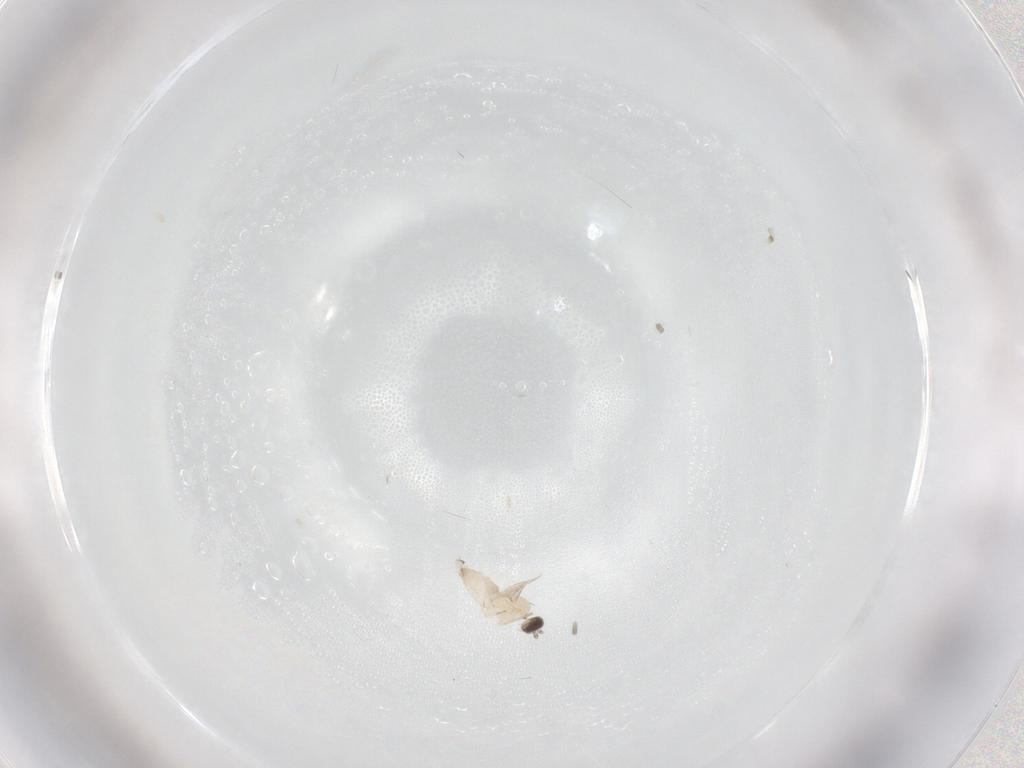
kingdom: Animalia
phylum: Arthropoda
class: Insecta
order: Diptera
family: Cecidomyiidae
